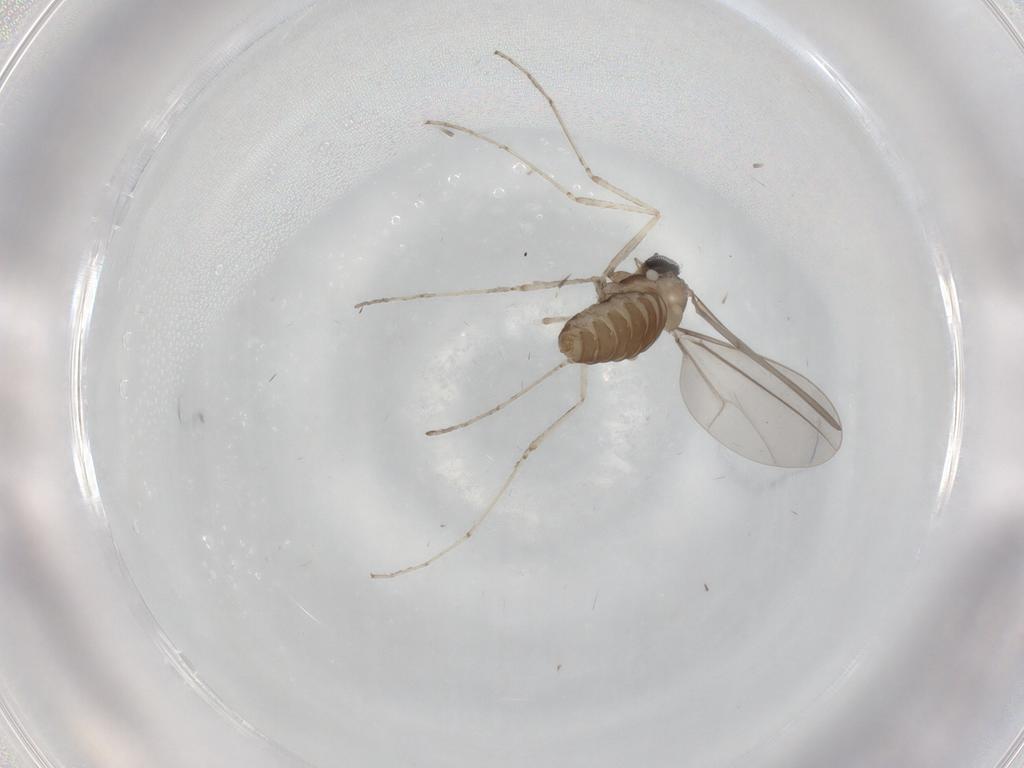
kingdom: Animalia
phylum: Arthropoda
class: Insecta
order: Diptera
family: Cecidomyiidae
